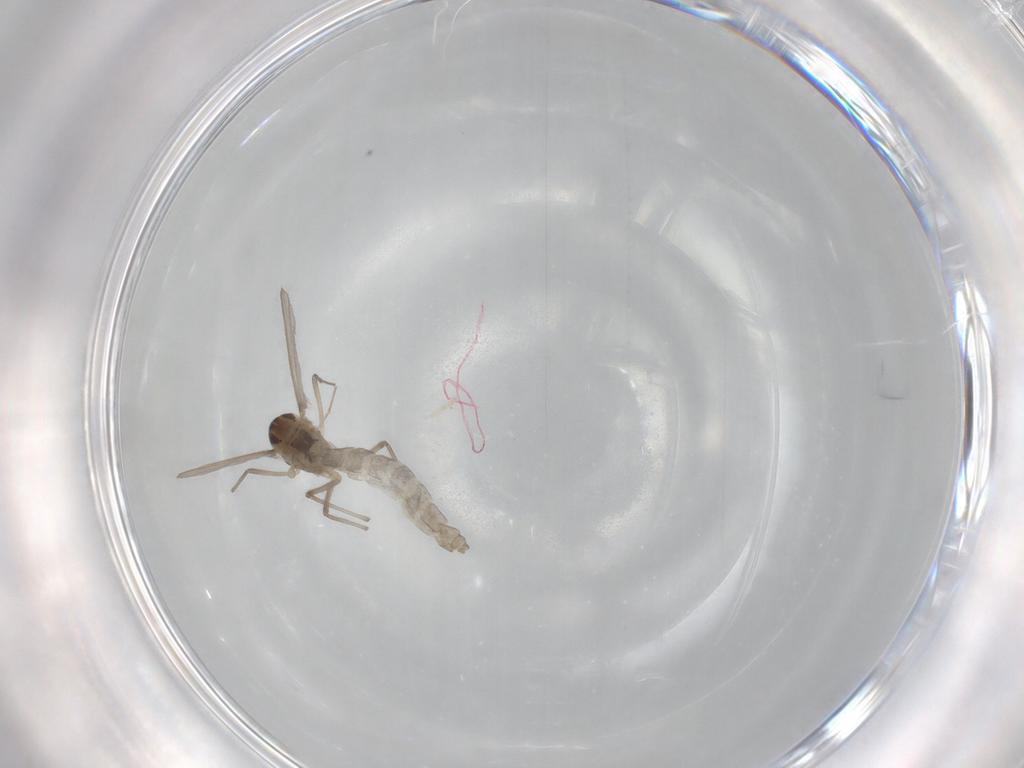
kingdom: Animalia
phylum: Arthropoda
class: Insecta
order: Diptera
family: Chironomidae
